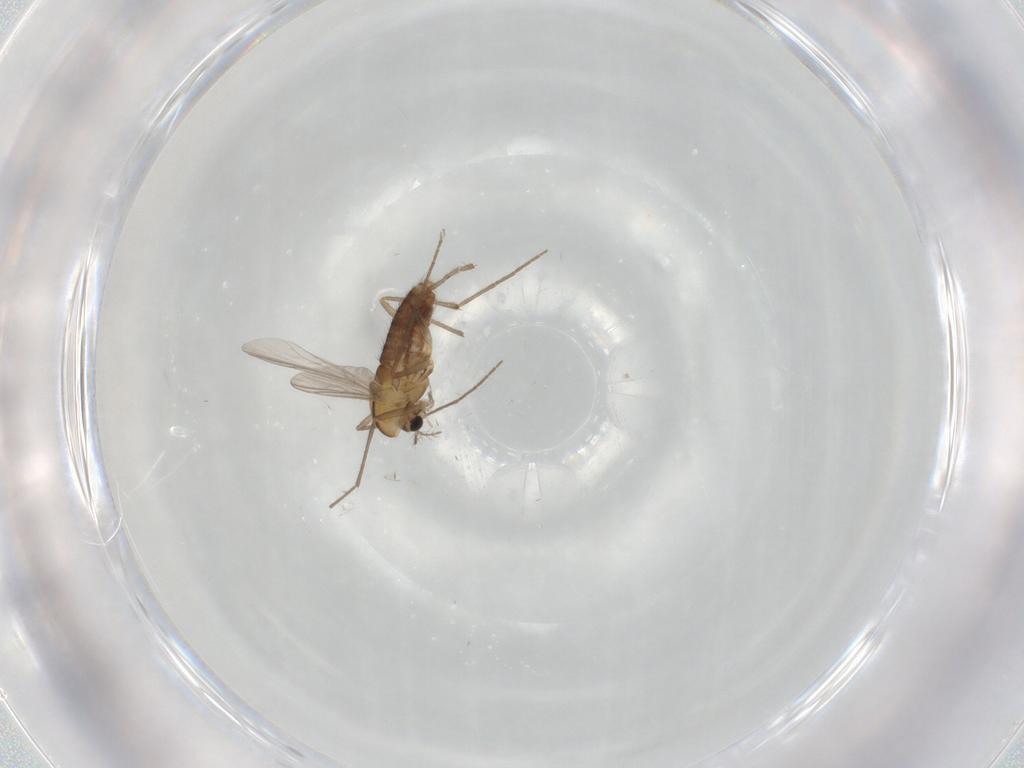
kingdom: Animalia
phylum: Arthropoda
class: Insecta
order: Diptera
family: Chironomidae
